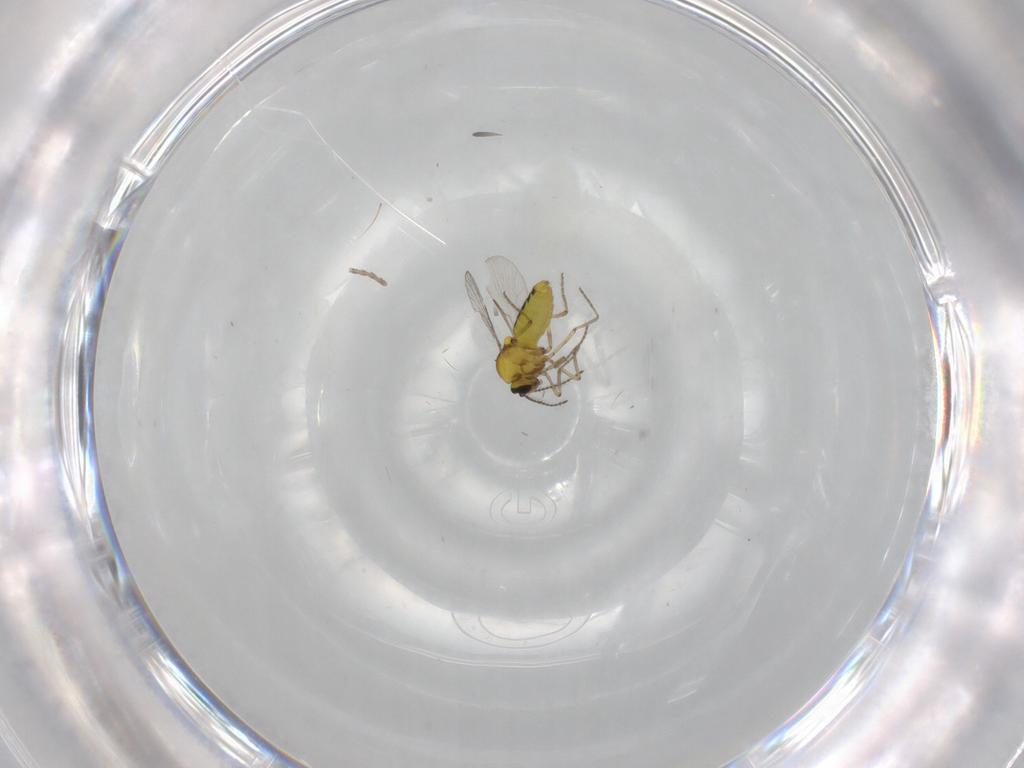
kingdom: Animalia
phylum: Arthropoda
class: Insecta
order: Diptera
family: Ceratopogonidae
